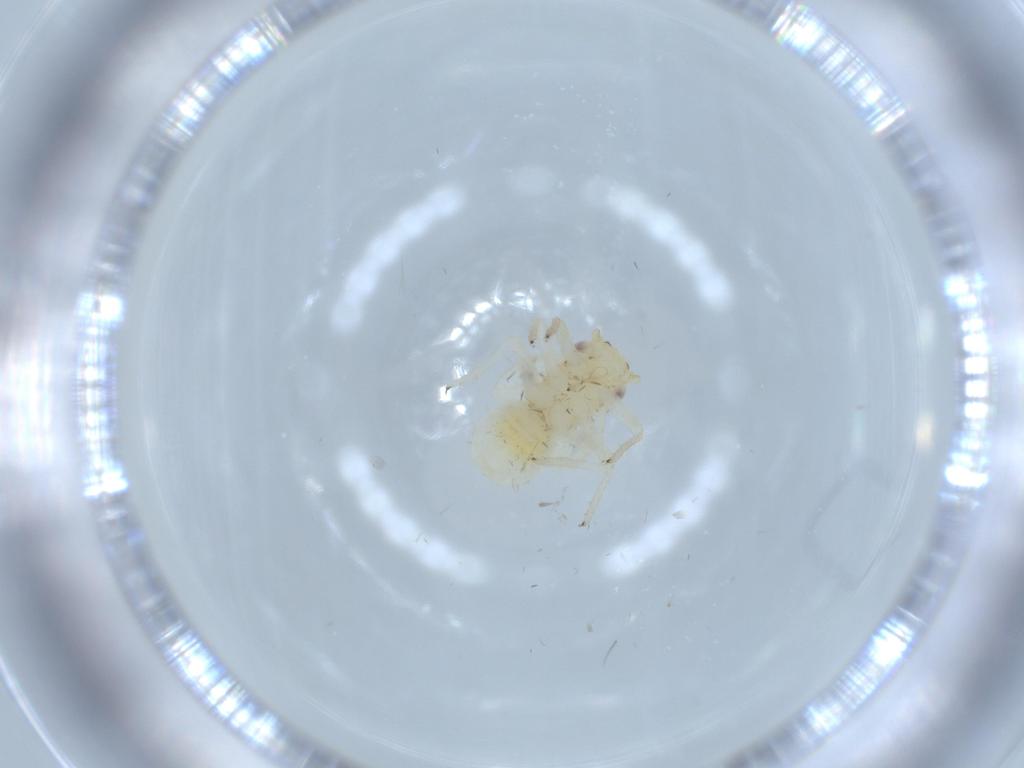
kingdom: Animalia
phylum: Arthropoda
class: Insecta
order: Hemiptera
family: Psyllidae
